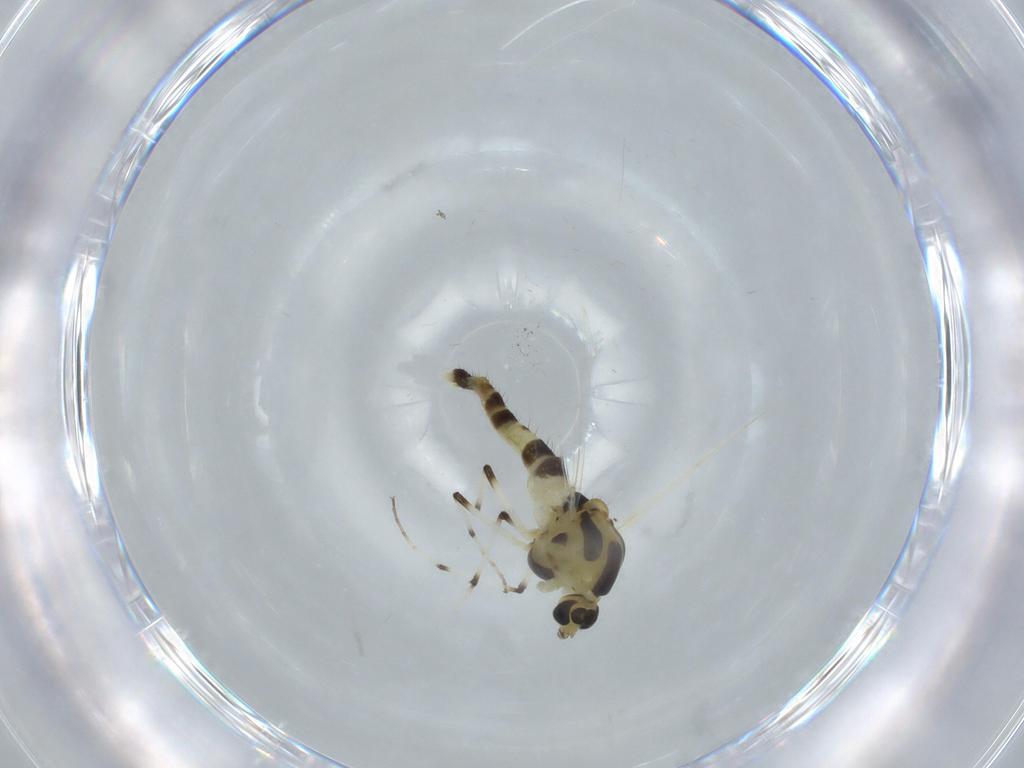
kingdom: Animalia
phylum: Arthropoda
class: Insecta
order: Diptera
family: Chironomidae
